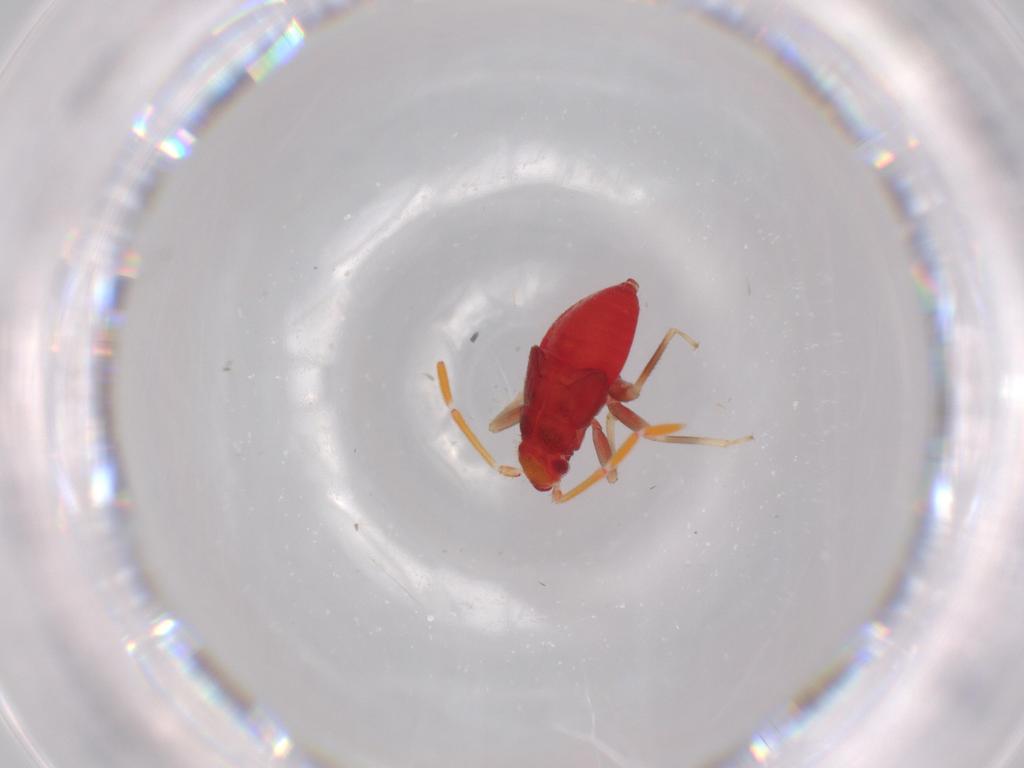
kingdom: Animalia
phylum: Arthropoda
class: Insecta
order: Hemiptera
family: Miridae
